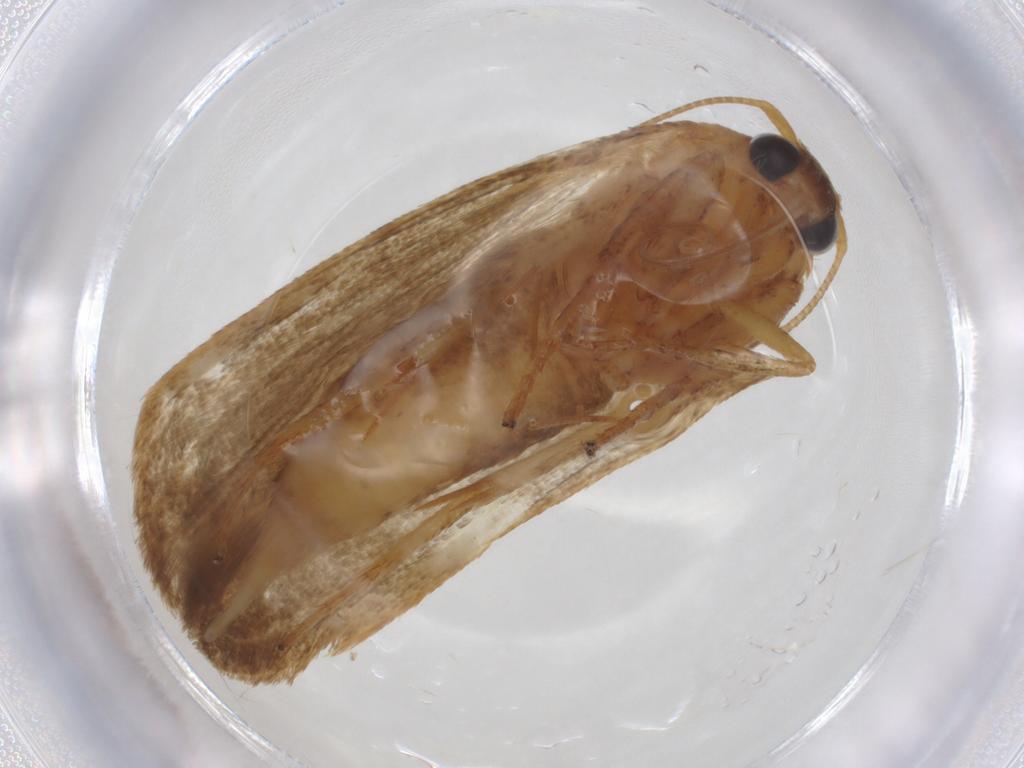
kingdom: Animalia
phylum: Arthropoda
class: Insecta
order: Lepidoptera
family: Blastobasidae
